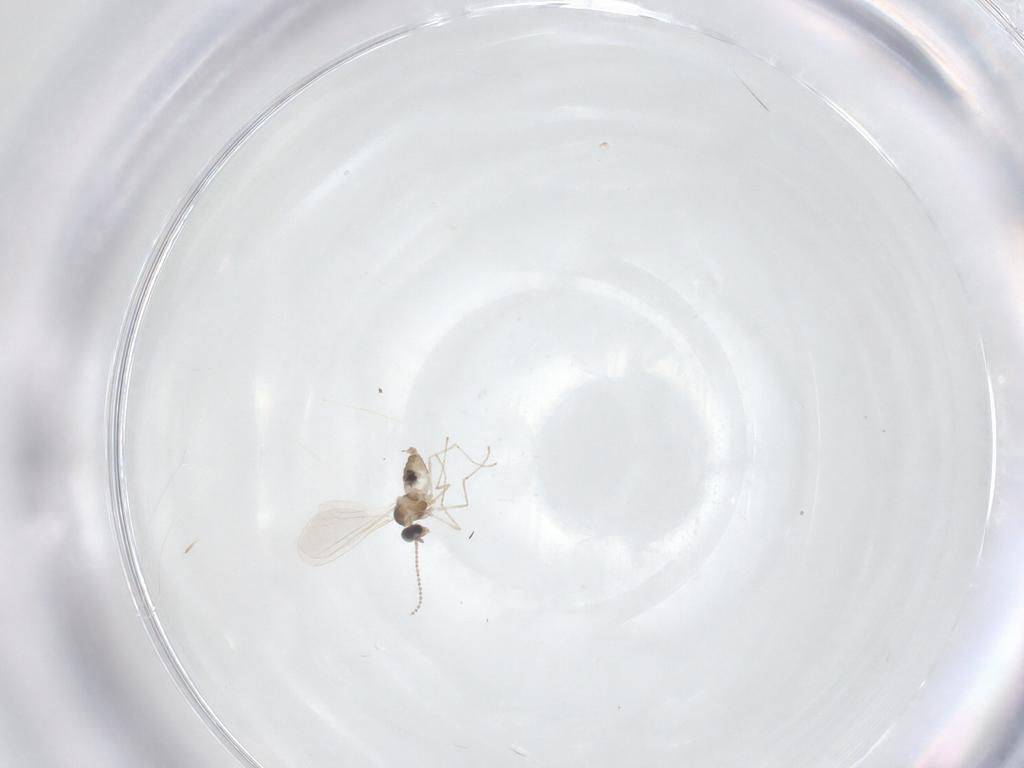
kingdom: Animalia
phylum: Arthropoda
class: Insecta
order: Diptera
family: Cecidomyiidae
